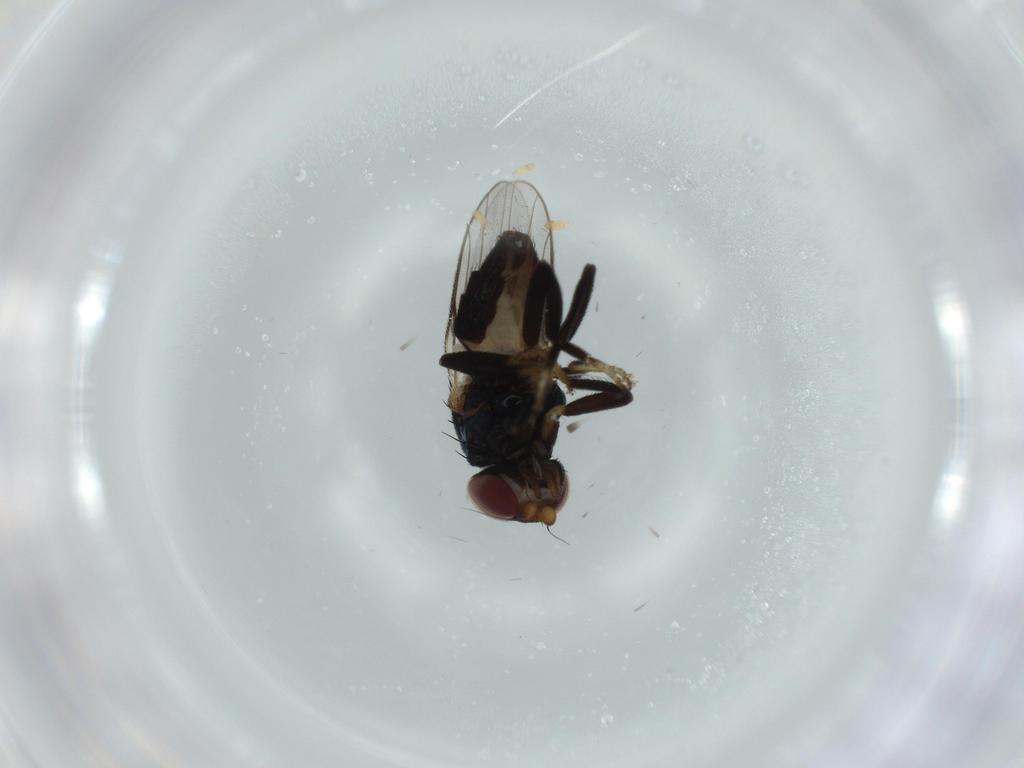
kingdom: Animalia
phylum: Arthropoda
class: Insecta
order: Diptera
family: Chloropidae
